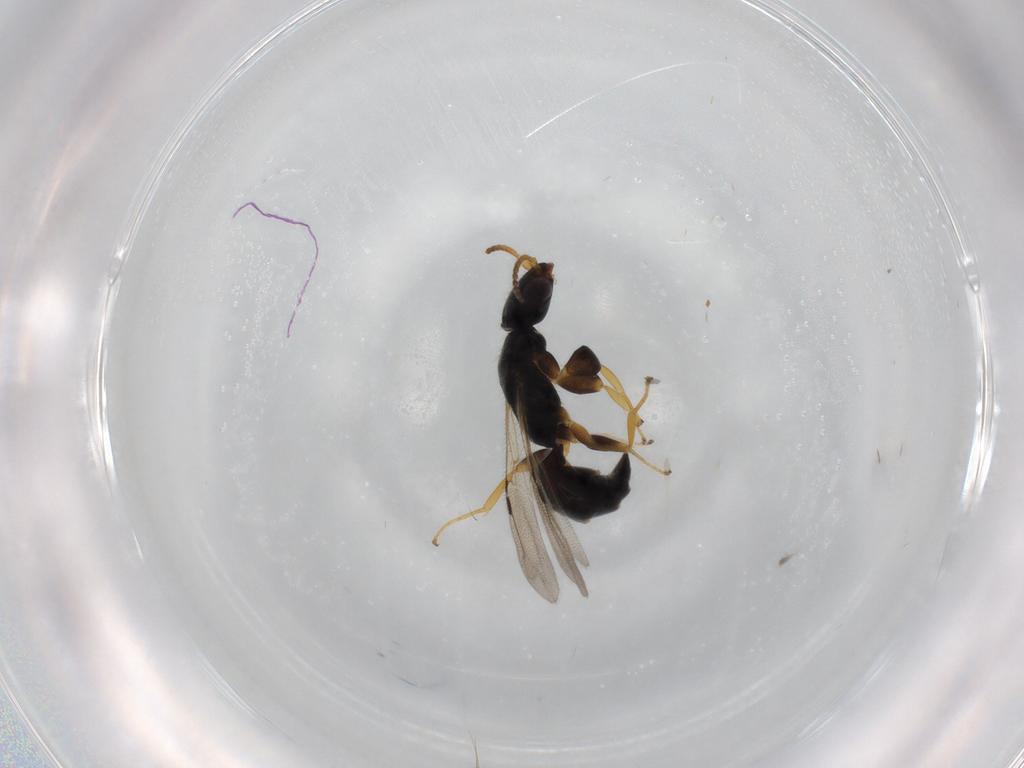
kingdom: Animalia
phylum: Arthropoda
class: Insecta
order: Hymenoptera
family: Bethylidae
